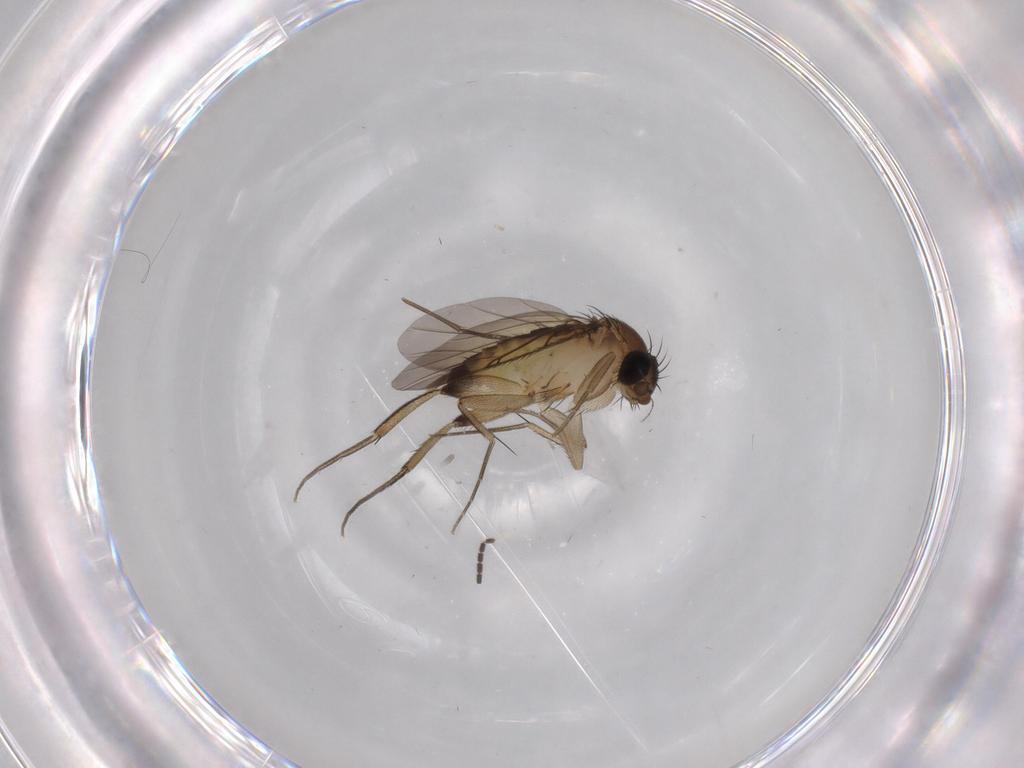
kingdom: Animalia
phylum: Arthropoda
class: Insecta
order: Diptera
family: Phoridae
